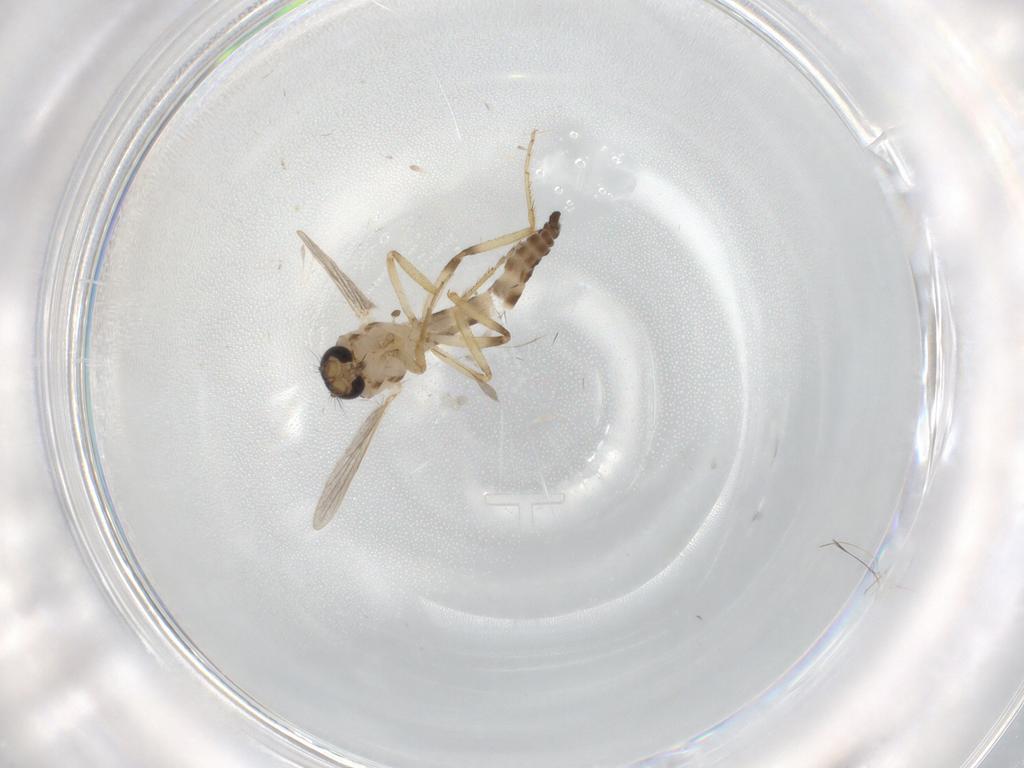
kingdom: Animalia
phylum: Arthropoda
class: Insecta
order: Diptera
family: Ceratopogonidae
